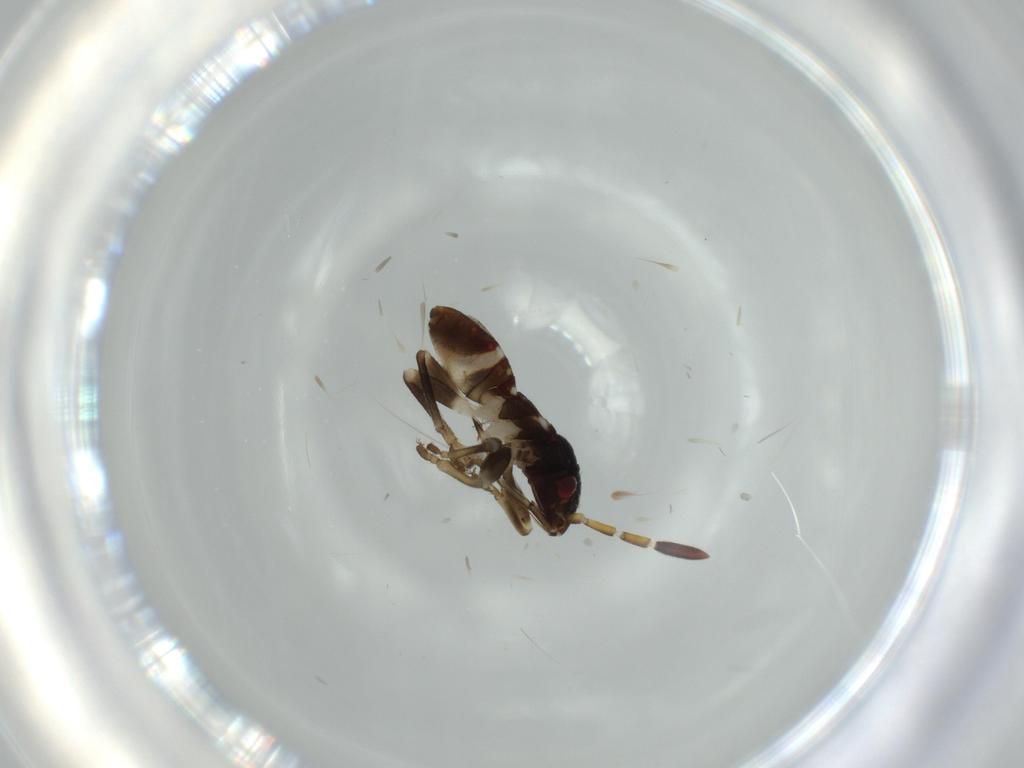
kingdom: Animalia
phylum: Arthropoda
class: Insecta
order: Hemiptera
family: Rhyparochromidae
